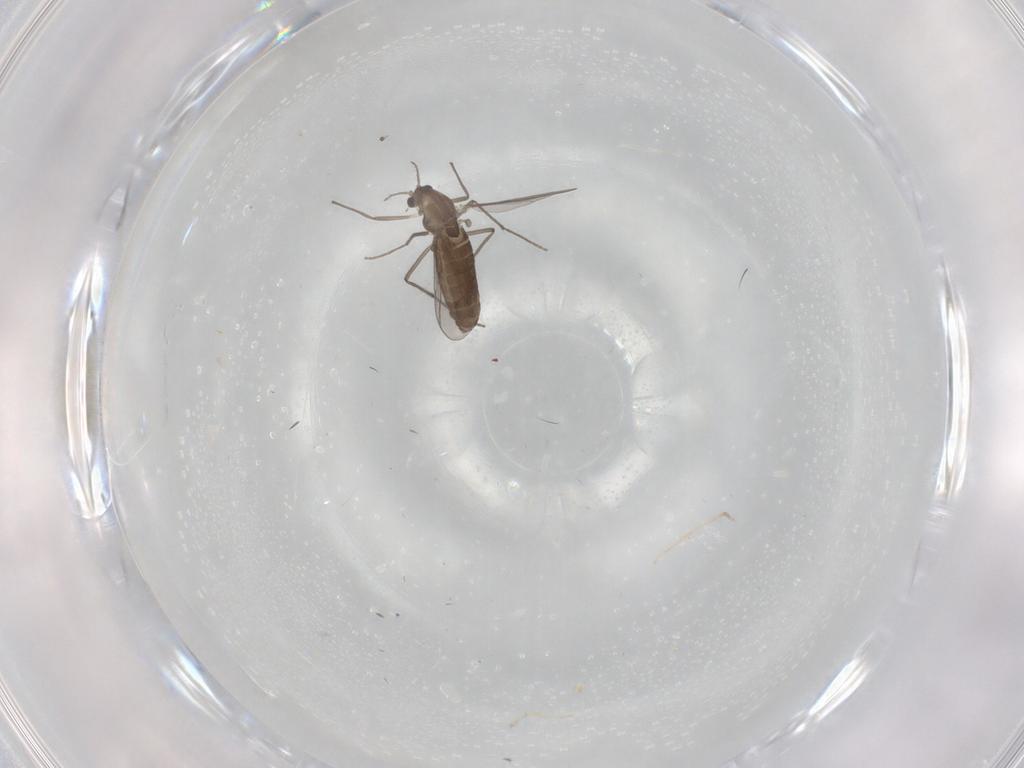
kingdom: Animalia
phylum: Arthropoda
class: Insecta
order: Diptera
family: Chironomidae
